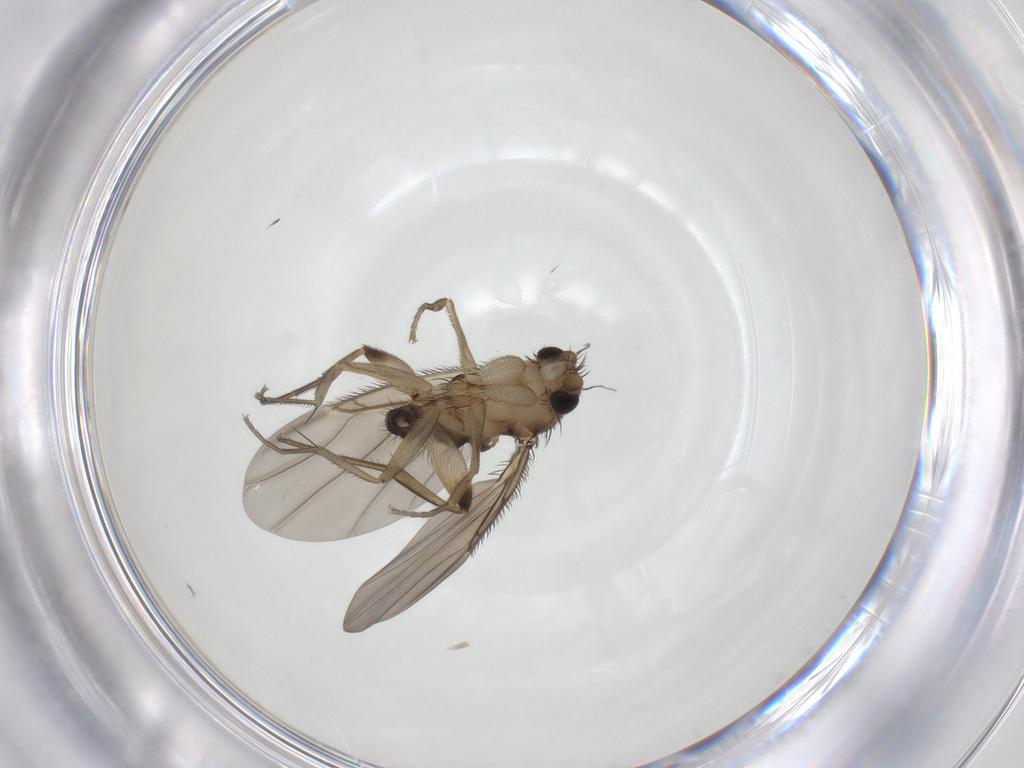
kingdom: Animalia
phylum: Arthropoda
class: Insecta
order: Diptera
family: Phoridae
